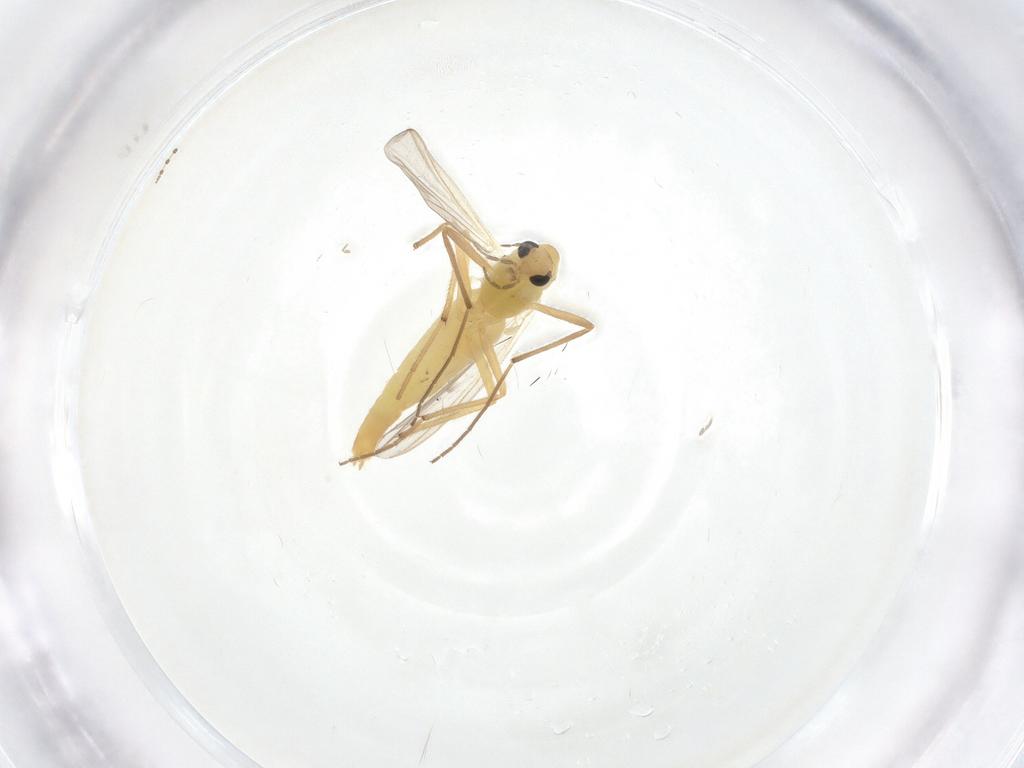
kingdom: Animalia
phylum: Arthropoda
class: Insecta
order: Diptera
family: Chironomidae
